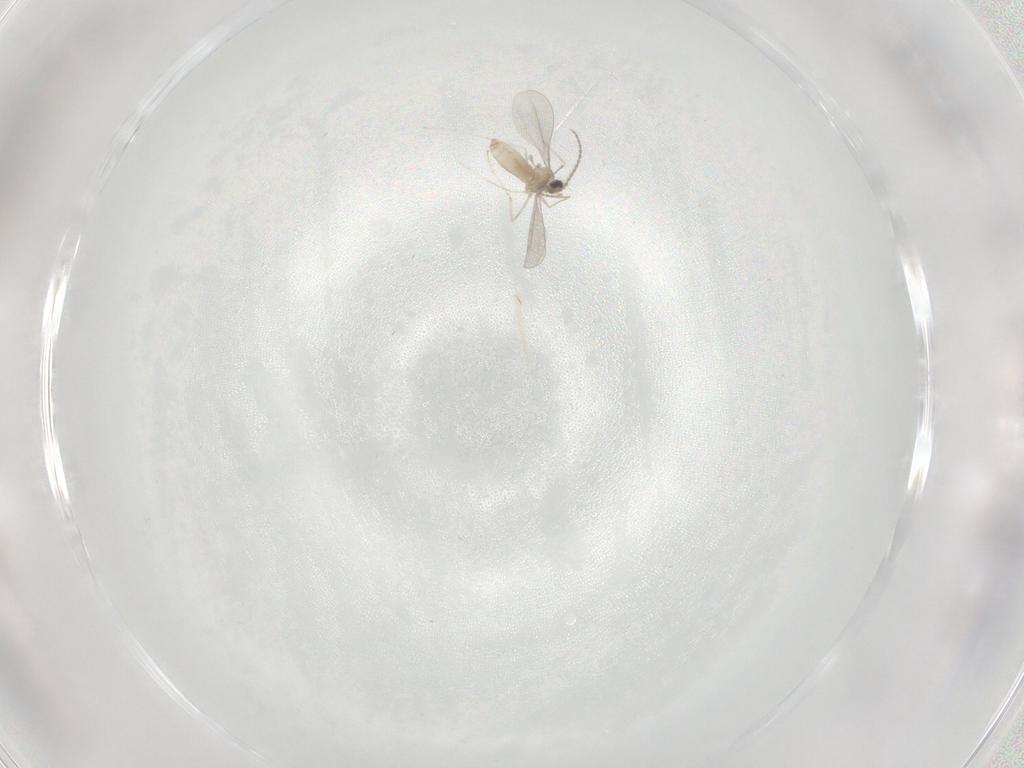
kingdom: Animalia
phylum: Arthropoda
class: Insecta
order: Diptera
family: Cecidomyiidae
